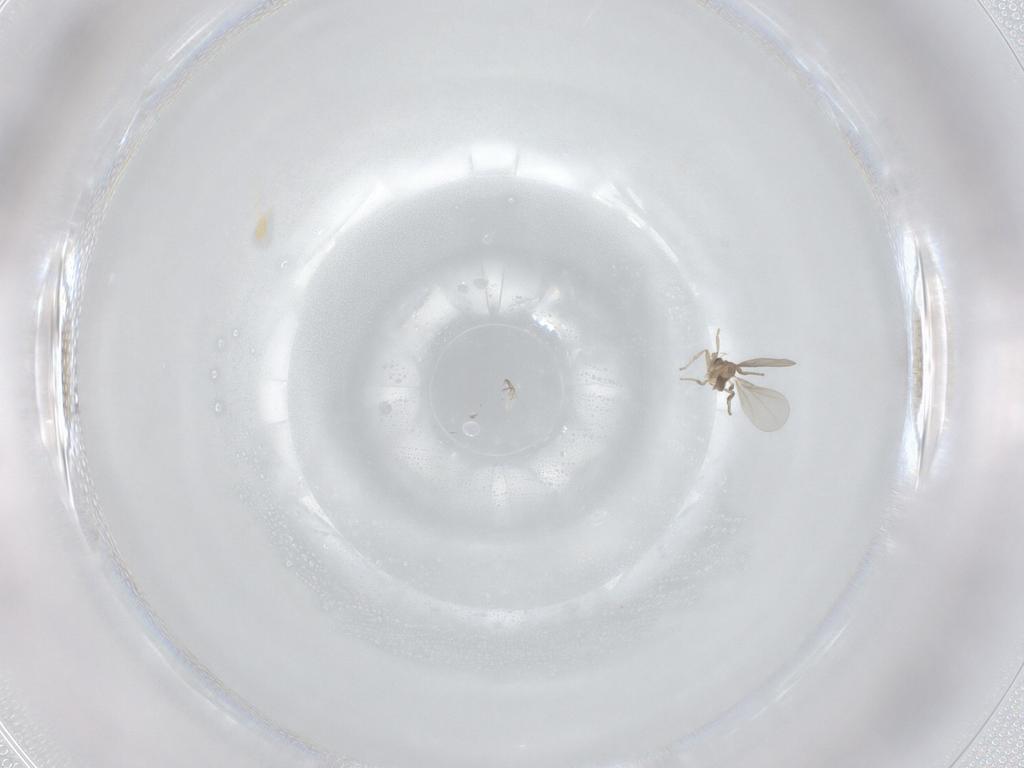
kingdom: Animalia
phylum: Arthropoda
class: Insecta
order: Diptera
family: Phoridae
